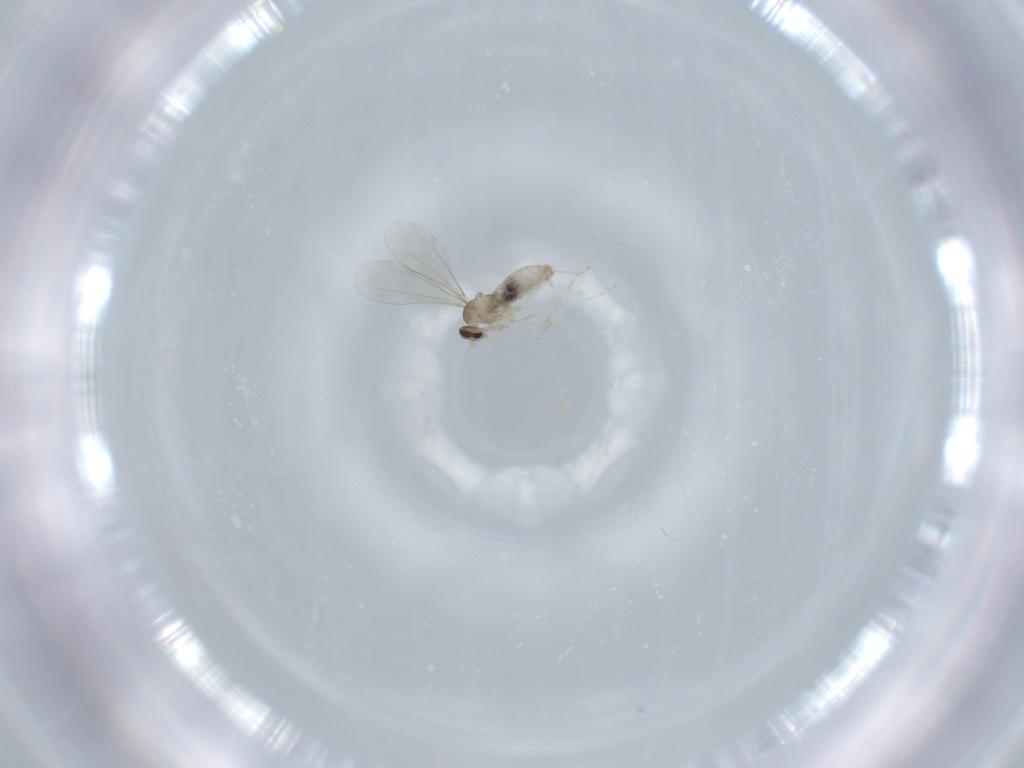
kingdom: Animalia
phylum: Arthropoda
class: Insecta
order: Diptera
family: Cecidomyiidae
